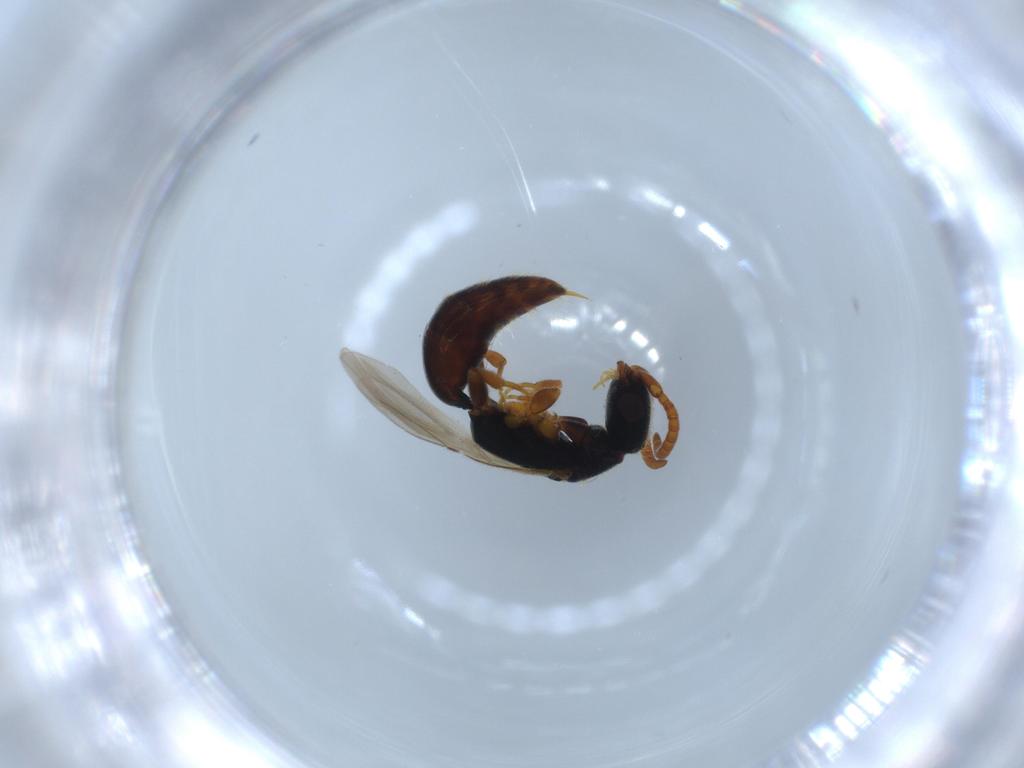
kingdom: Animalia
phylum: Arthropoda
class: Insecta
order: Hymenoptera
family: Bethylidae
